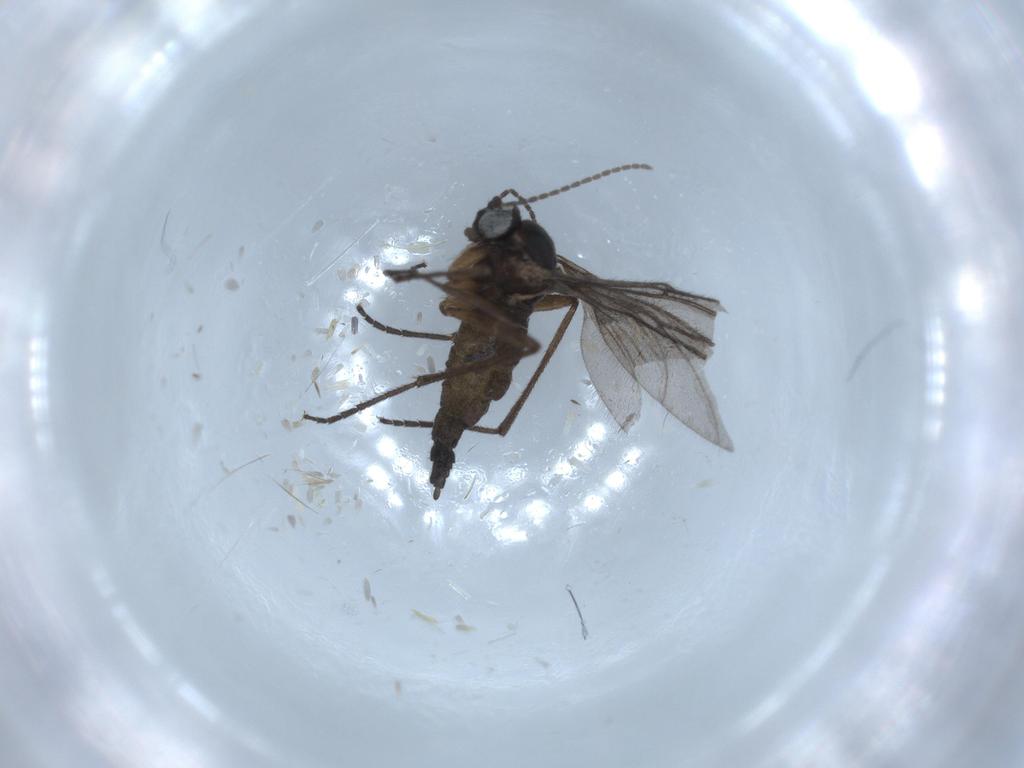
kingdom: Animalia
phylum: Arthropoda
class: Insecta
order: Diptera
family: Sciaridae
